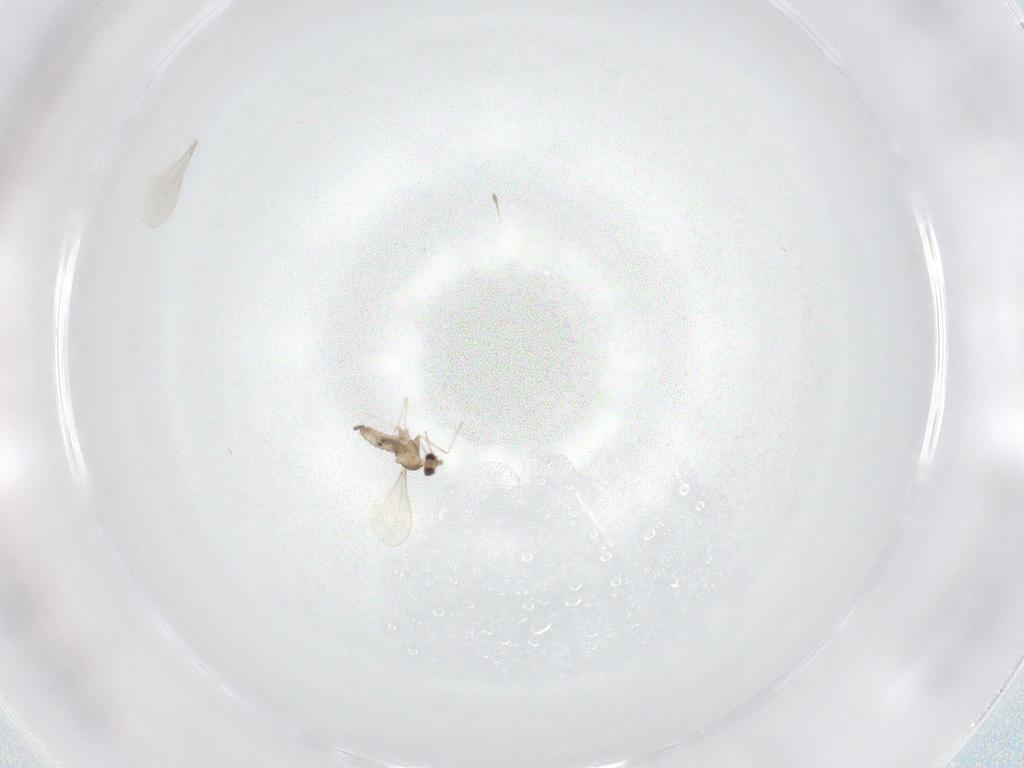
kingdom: Animalia
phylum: Arthropoda
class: Insecta
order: Diptera
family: Cecidomyiidae
